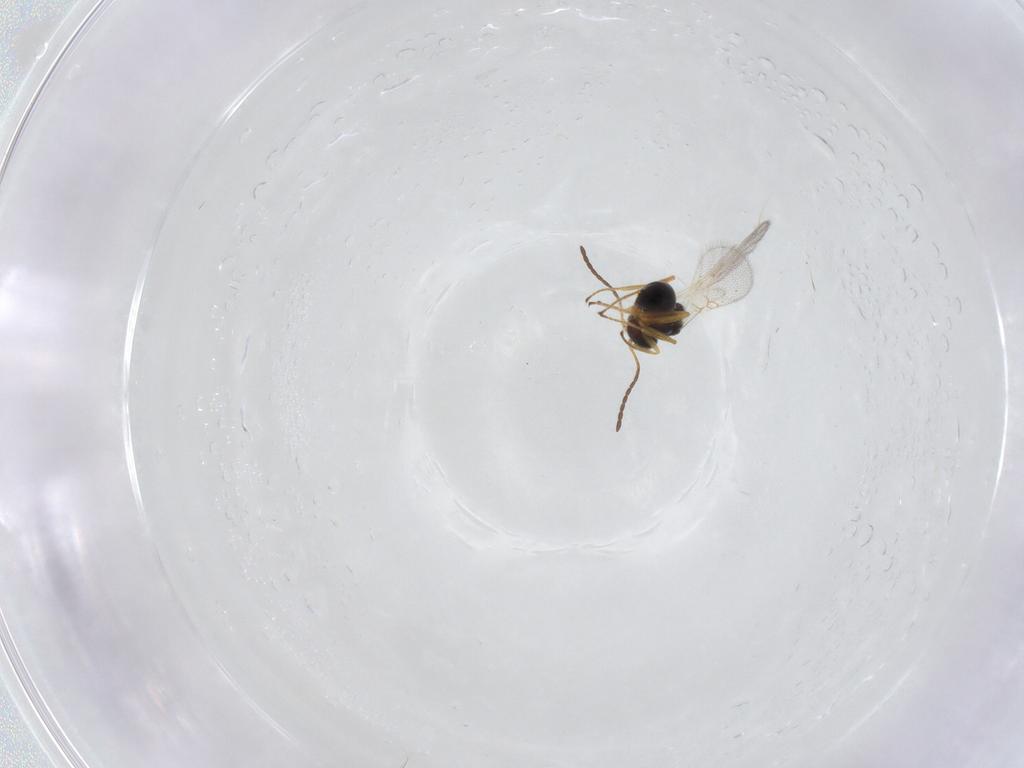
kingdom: Animalia
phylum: Arthropoda
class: Insecta
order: Hymenoptera
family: Figitidae
